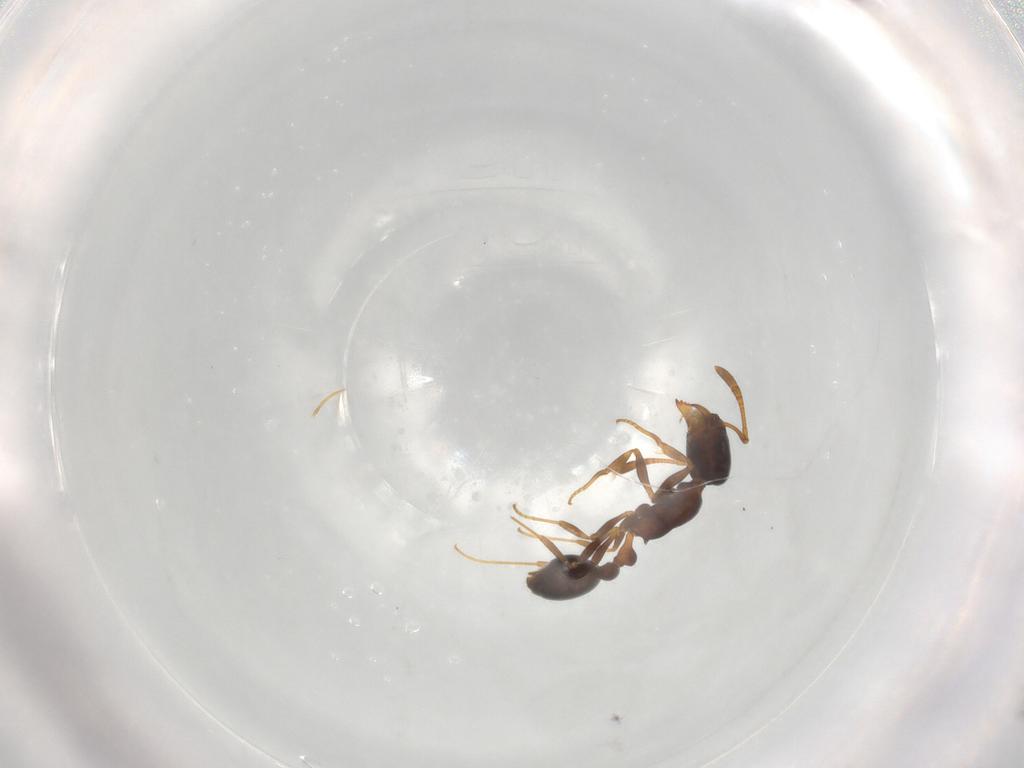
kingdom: Animalia
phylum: Arthropoda
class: Insecta
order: Hymenoptera
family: Formicidae
